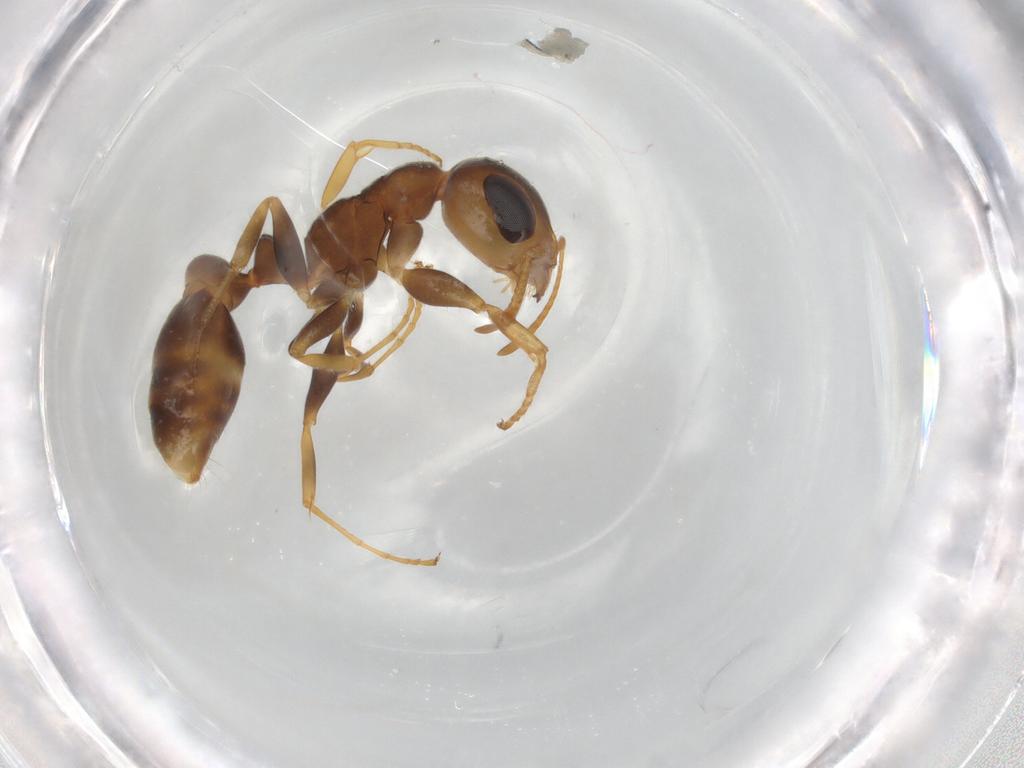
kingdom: Animalia
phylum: Arthropoda
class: Insecta
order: Hymenoptera
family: Formicidae
